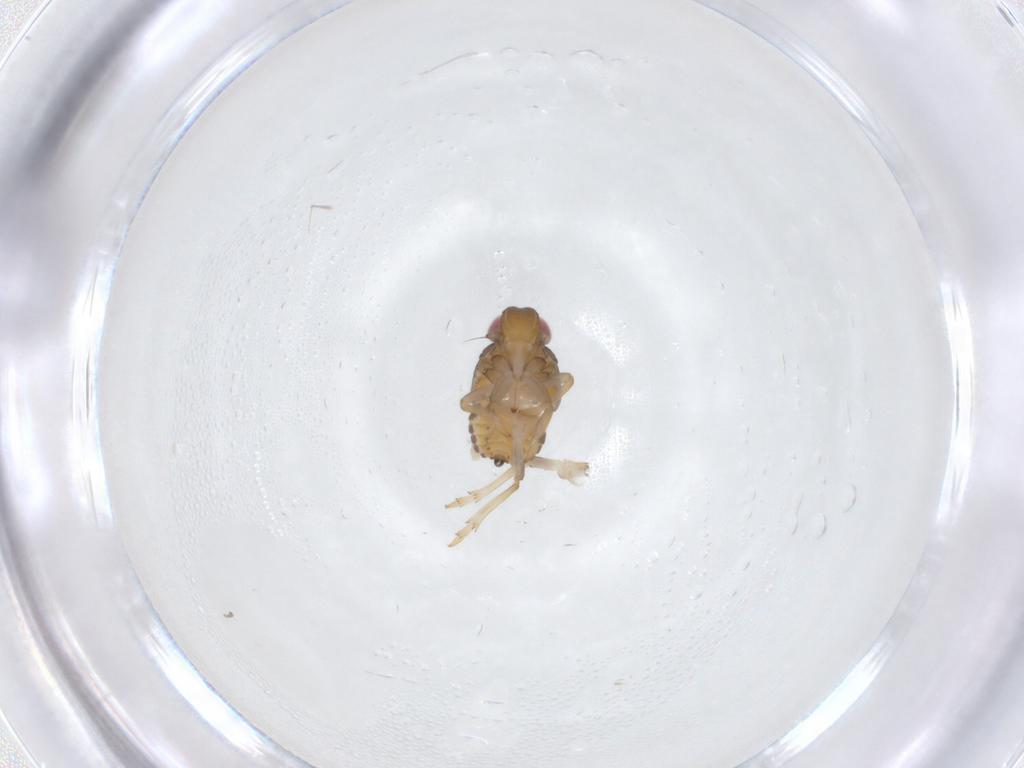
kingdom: Animalia
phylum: Arthropoda
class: Insecta
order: Hemiptera
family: Issidae
